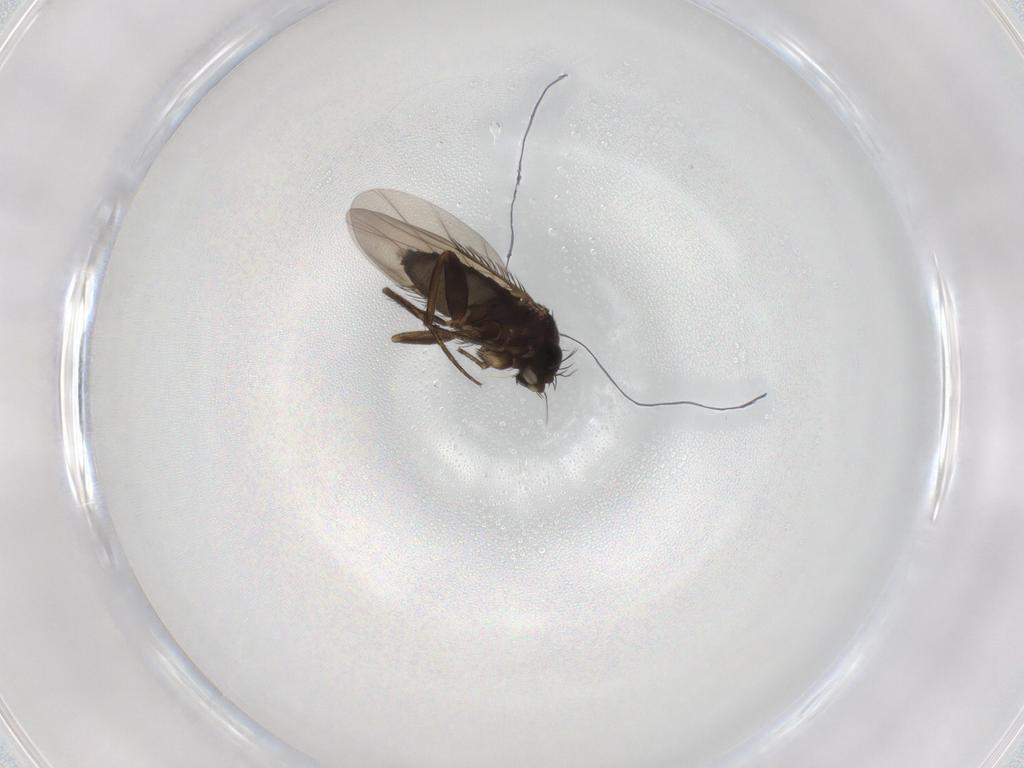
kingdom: Animalia
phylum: Arthropoda
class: Insecta
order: Diptera
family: Phoridae
